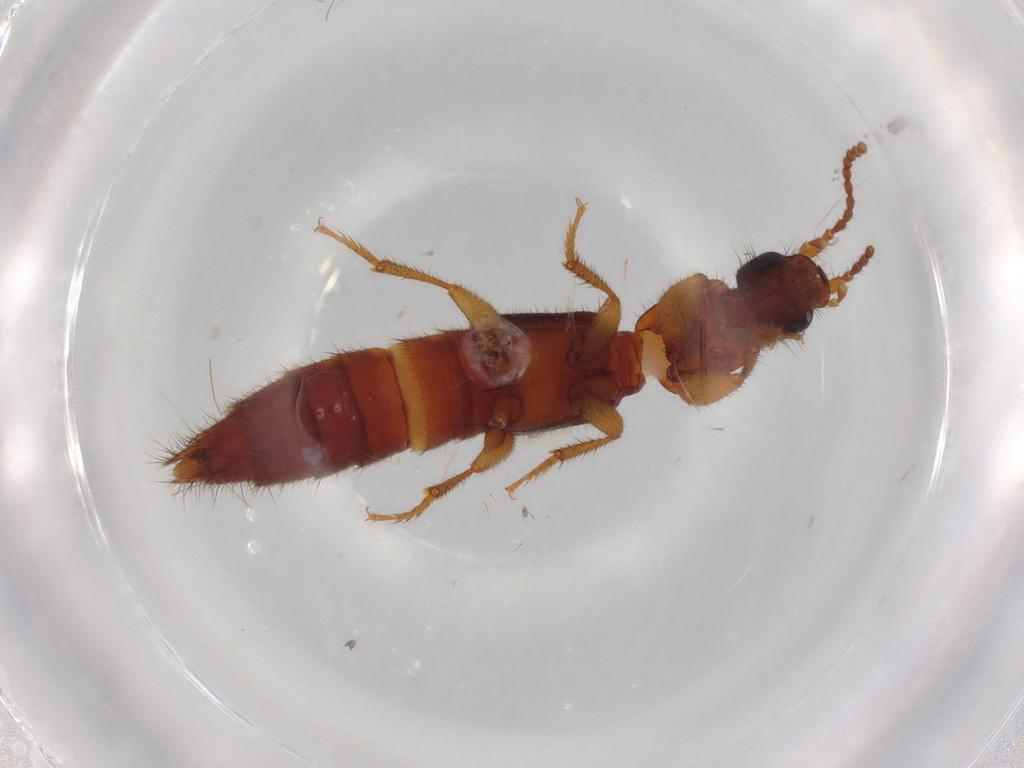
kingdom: Animalia
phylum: Arthropoda
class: Insecta
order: Coleoptera
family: Staphylinidae
